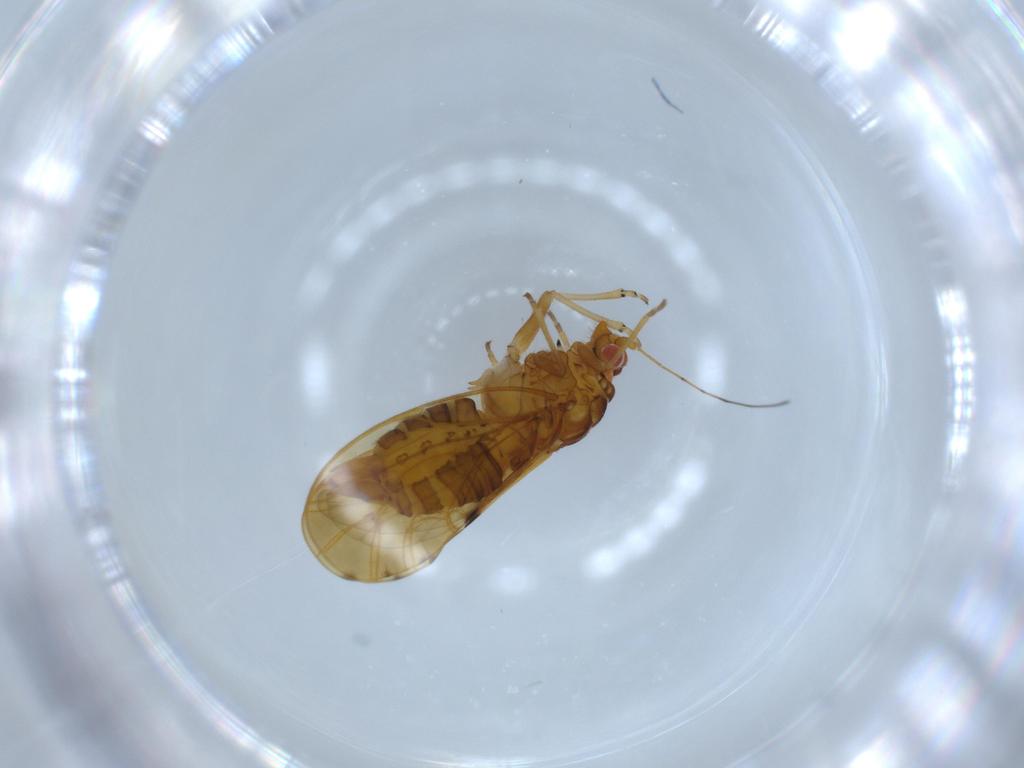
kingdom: Animalia
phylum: Arthropoda
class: Insecta
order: Hemiptera
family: Psylloidea_incertae_sedis
